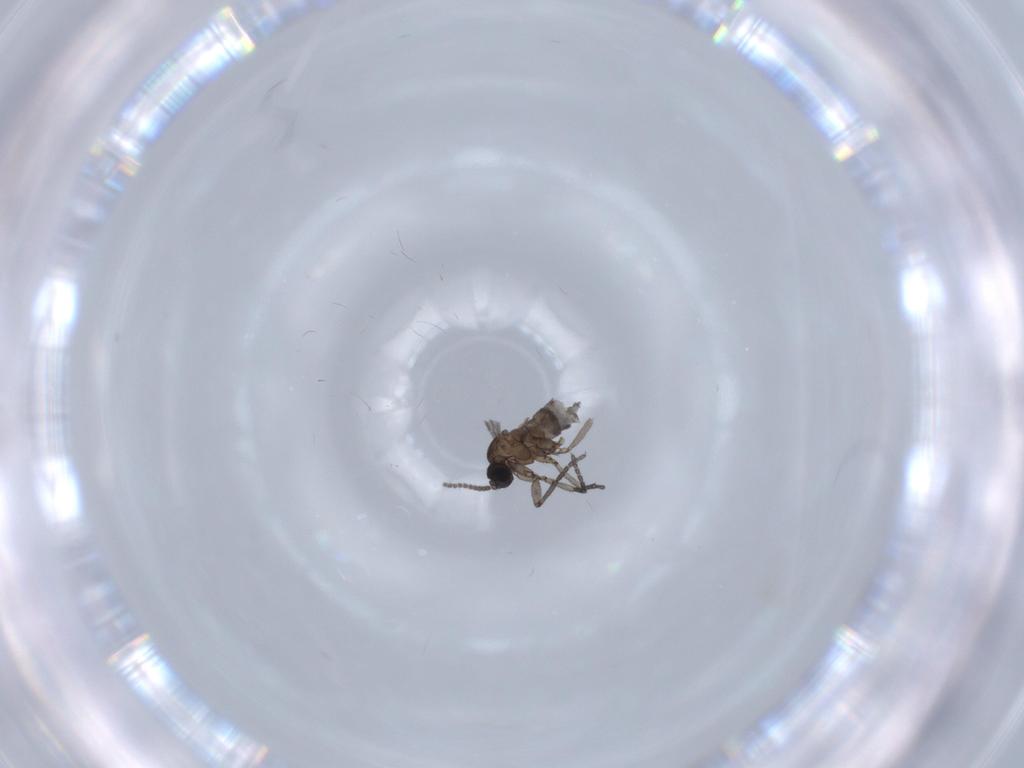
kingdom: Animalia
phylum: Arthropoda
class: Insecta
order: Diptera
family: Sciaridae
